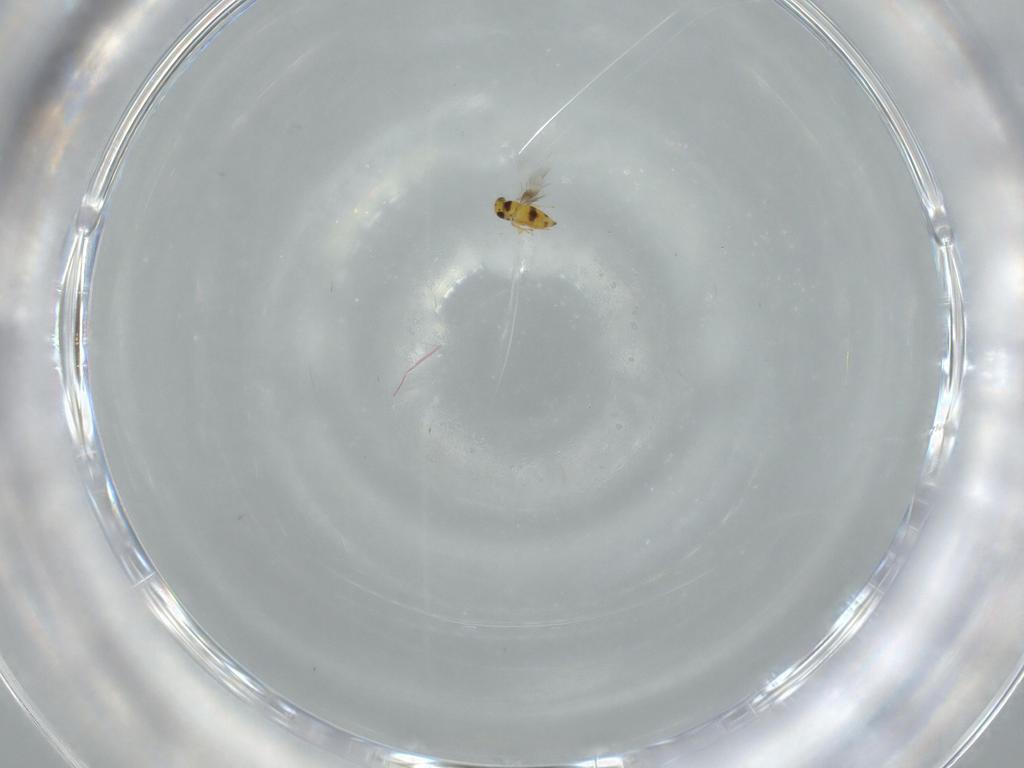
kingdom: Animalia
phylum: Arthropoda
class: Insecta
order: Hymenoptera
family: Signiphoridae
